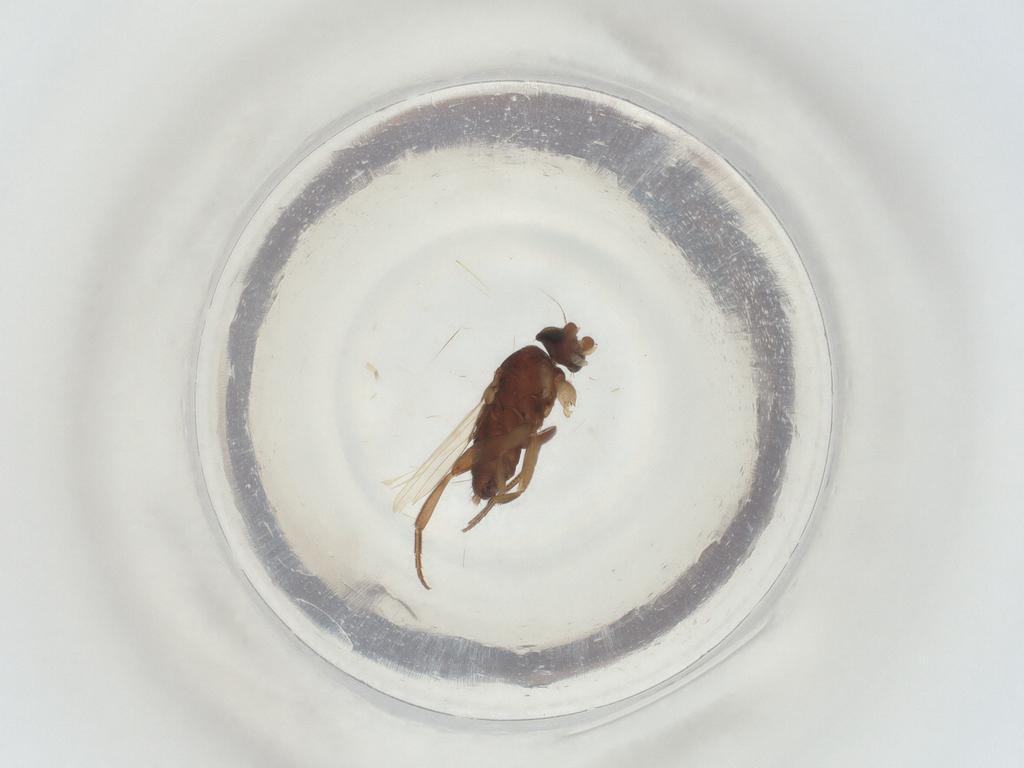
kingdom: Animalia
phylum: Arthropoda
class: Insecta
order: Diptera
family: Phoridae
